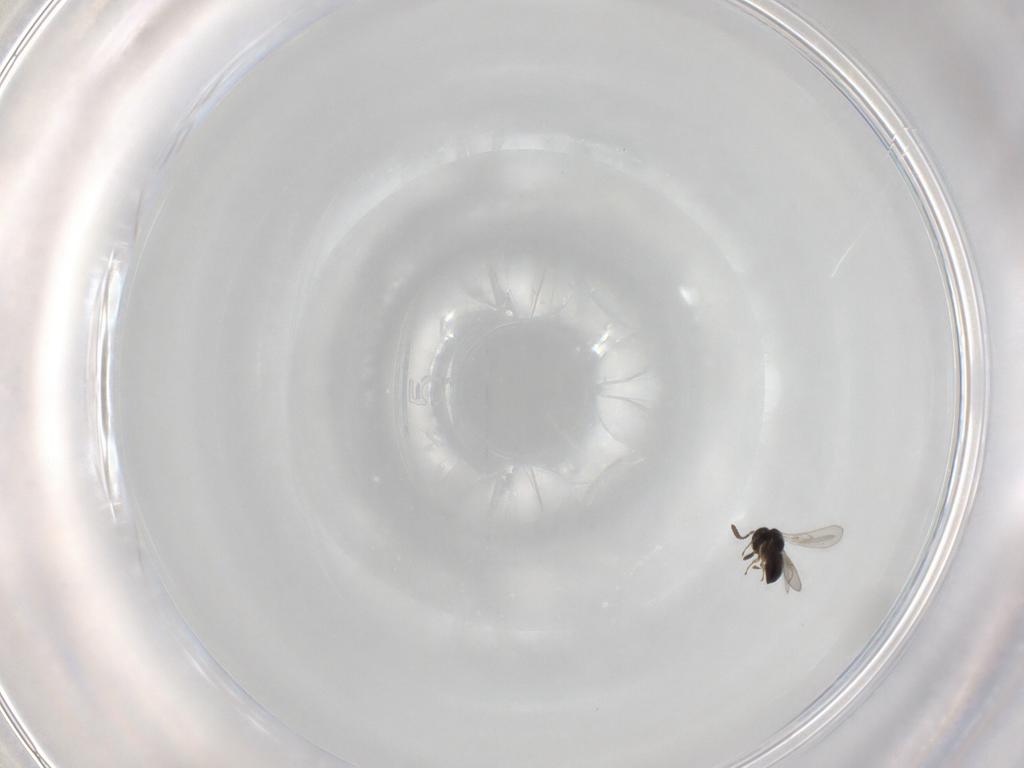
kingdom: Animalia
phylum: Arthropoda
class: Insecta
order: Hymenoptera
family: Scelionidae
